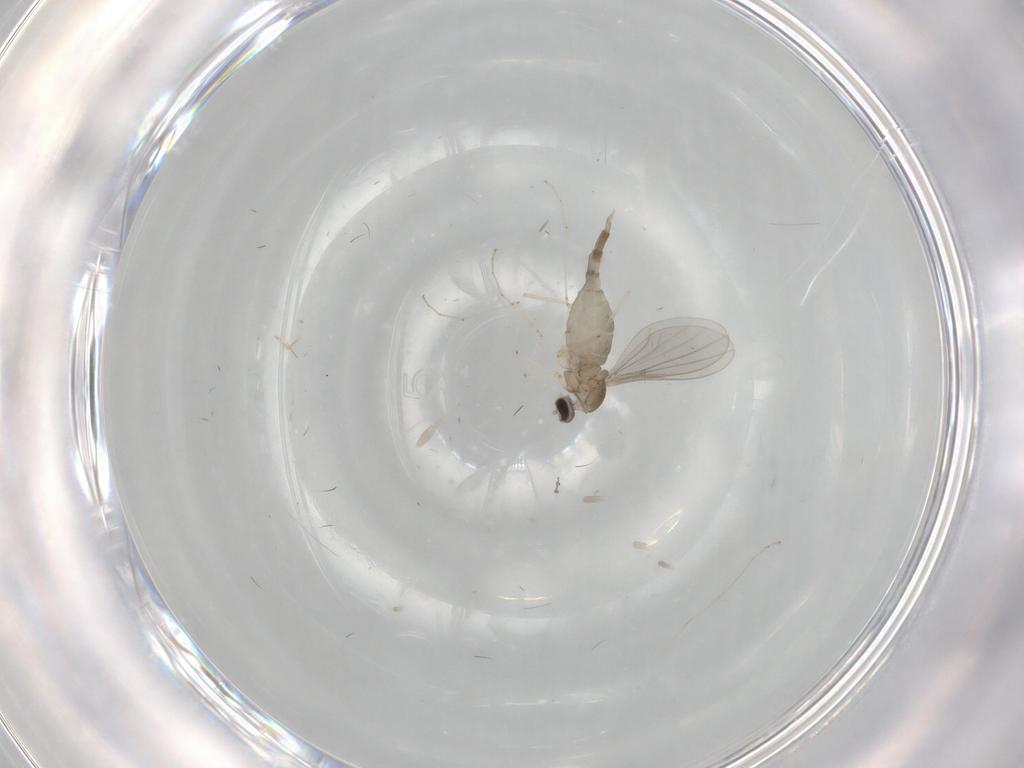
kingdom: Animalia
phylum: Arthropoda
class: Insecta
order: Diptera
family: Cecidomyiidae
